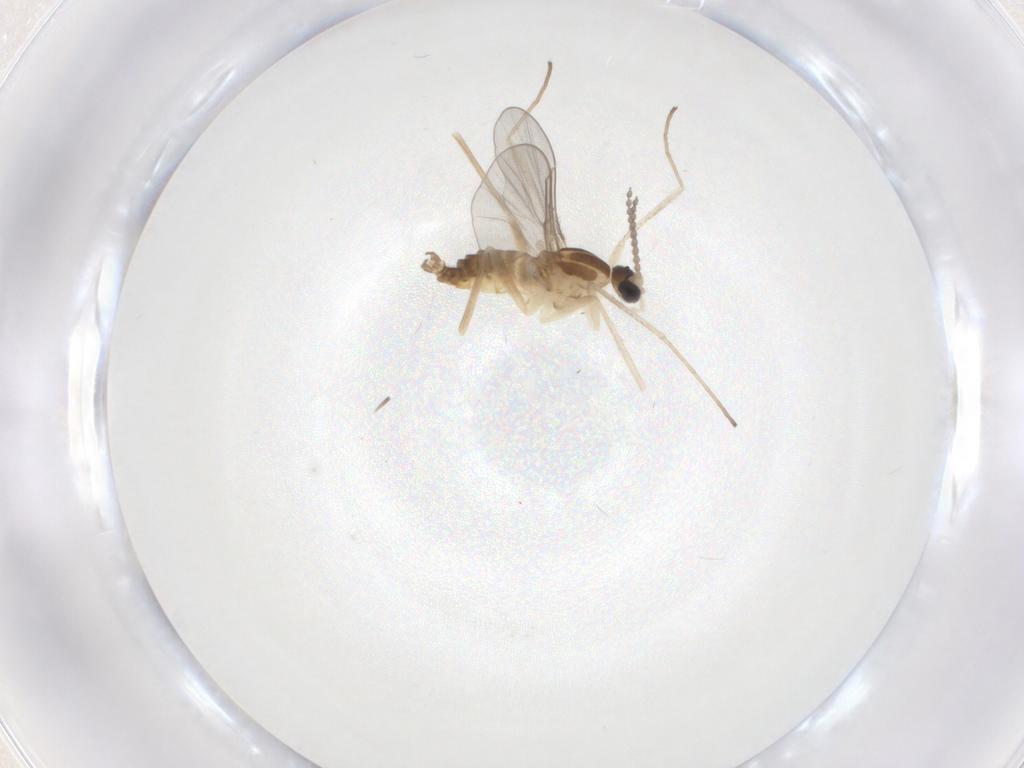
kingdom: Animalia
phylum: Arthropoda
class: Insecta
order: Diptera
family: Cecidomyiidae
